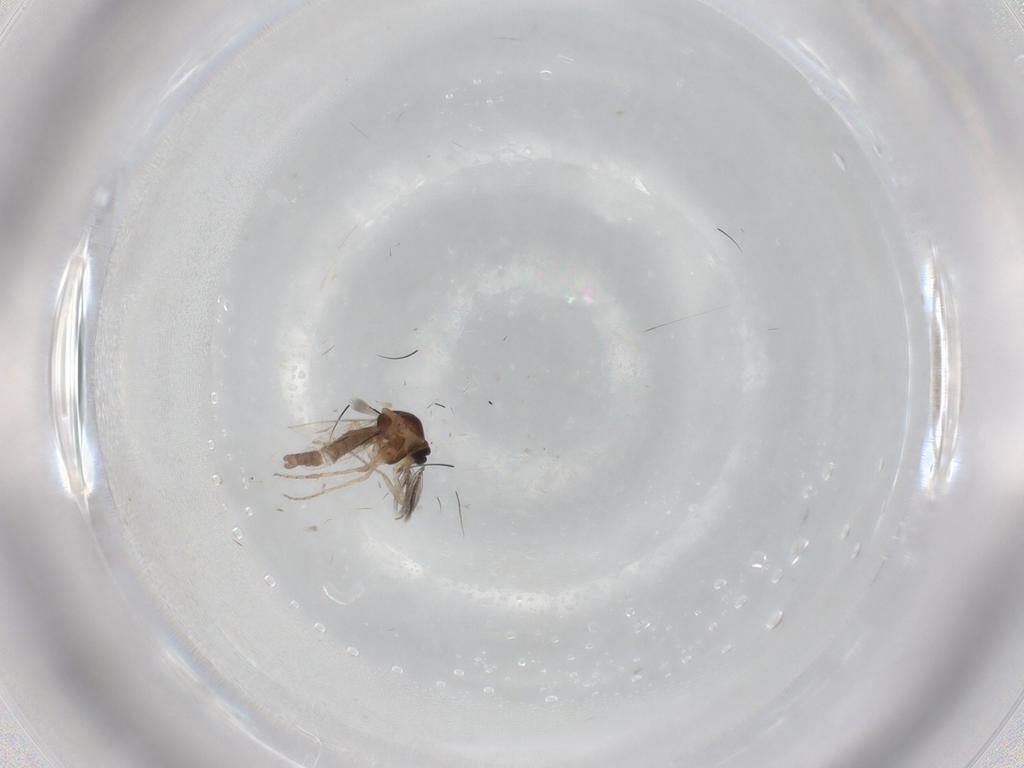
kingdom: Animalia
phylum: Arthropoda
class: Insecta
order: Diptera
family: Ceratopogonidae
